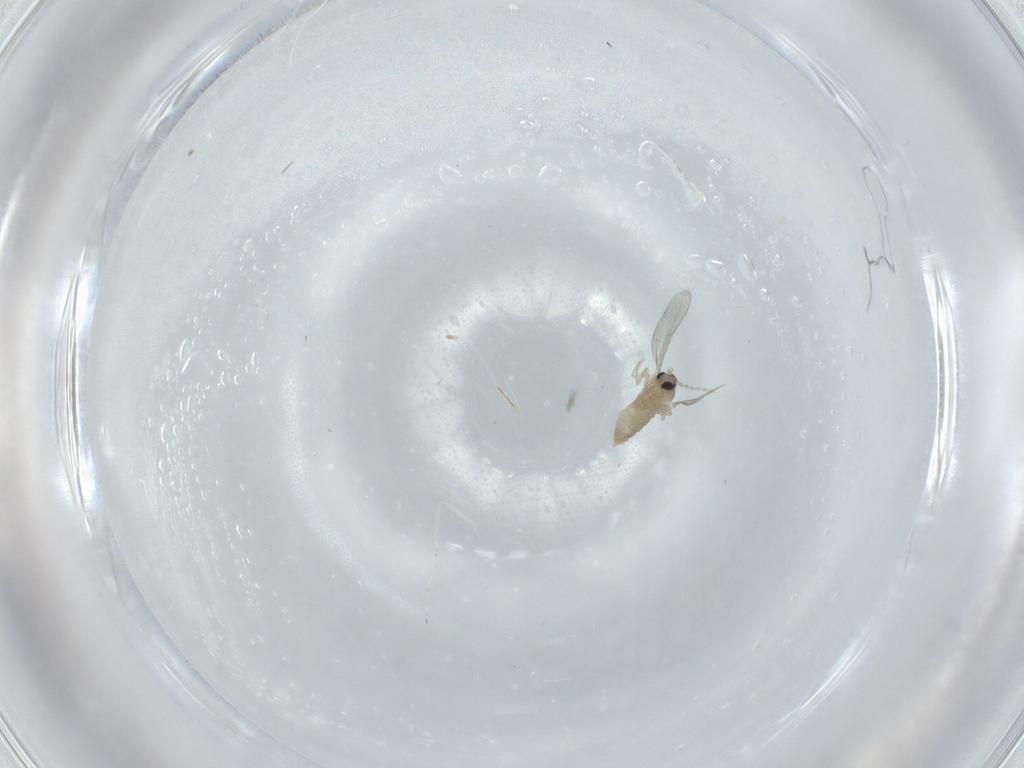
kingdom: Animalia
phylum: Arthropoda
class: Insecta
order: Diptera
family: Cecidomyiidae
